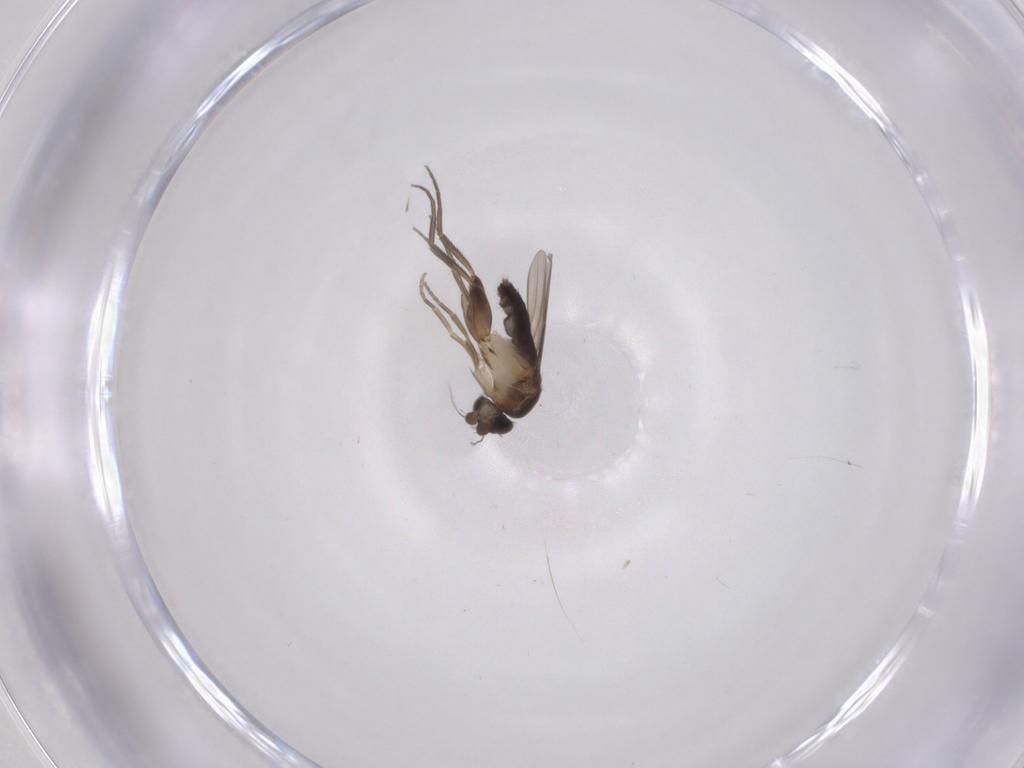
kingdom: Animalia
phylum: Arthropoda
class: Insecta
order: Diptera
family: Phoridae
